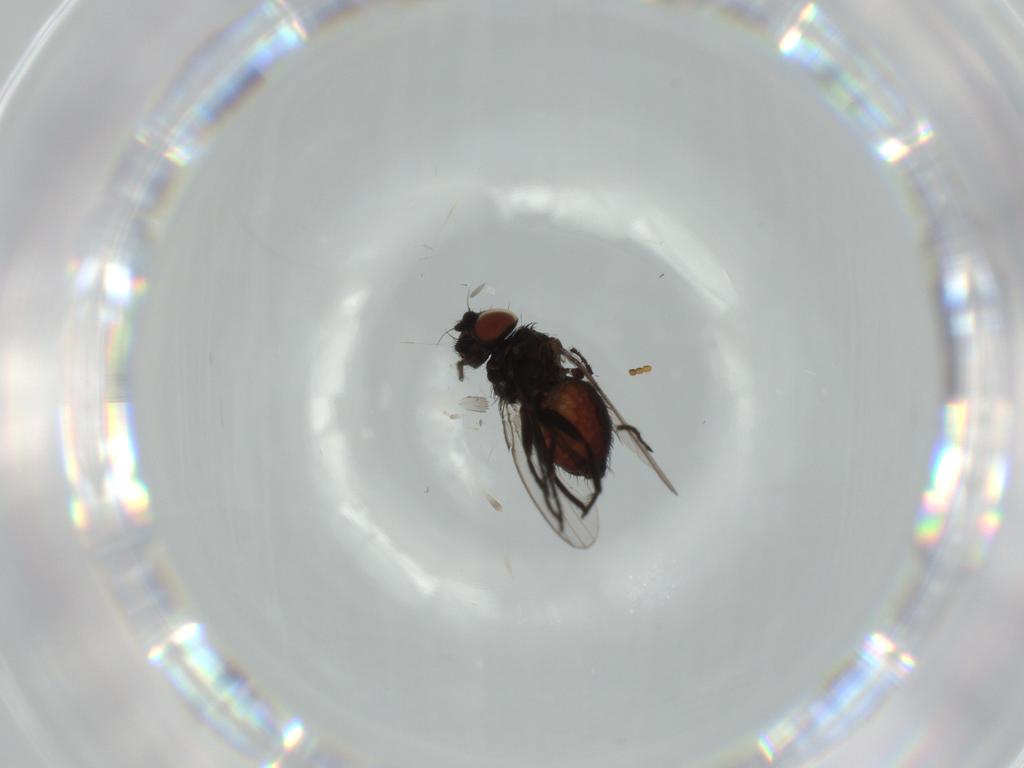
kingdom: Animalia
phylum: Arthropoda
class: Insecta
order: Diptera
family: Milichiidae
